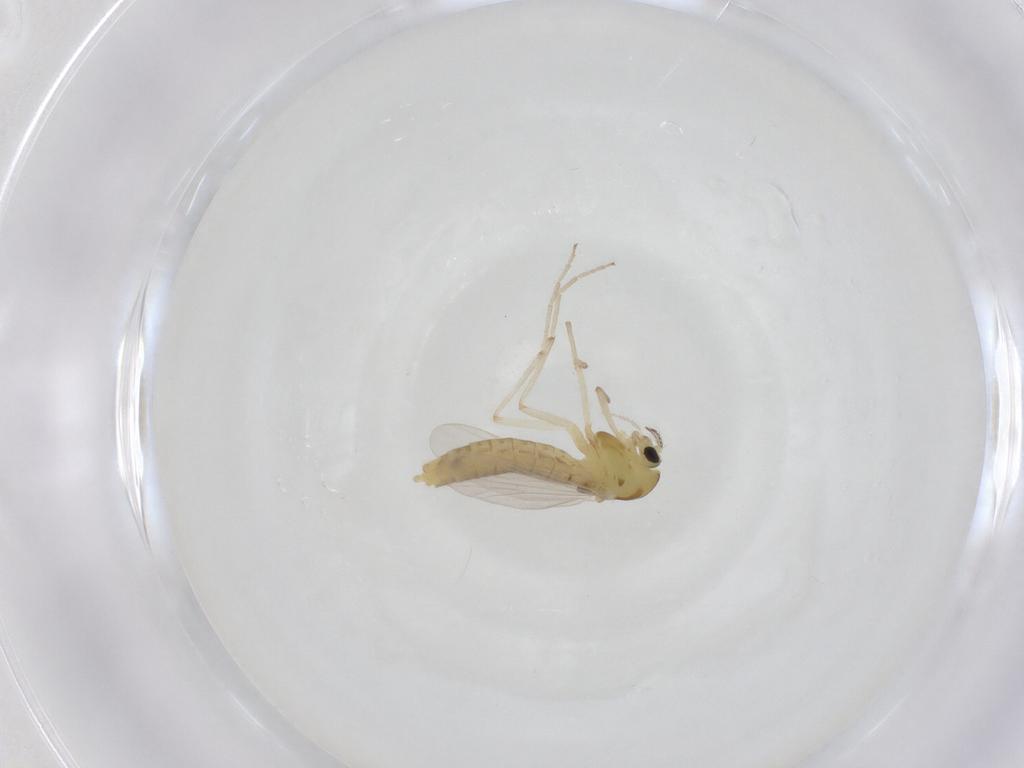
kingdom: Animalia
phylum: Arthropoda
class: Insecta
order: Diptera
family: Chironomidae
